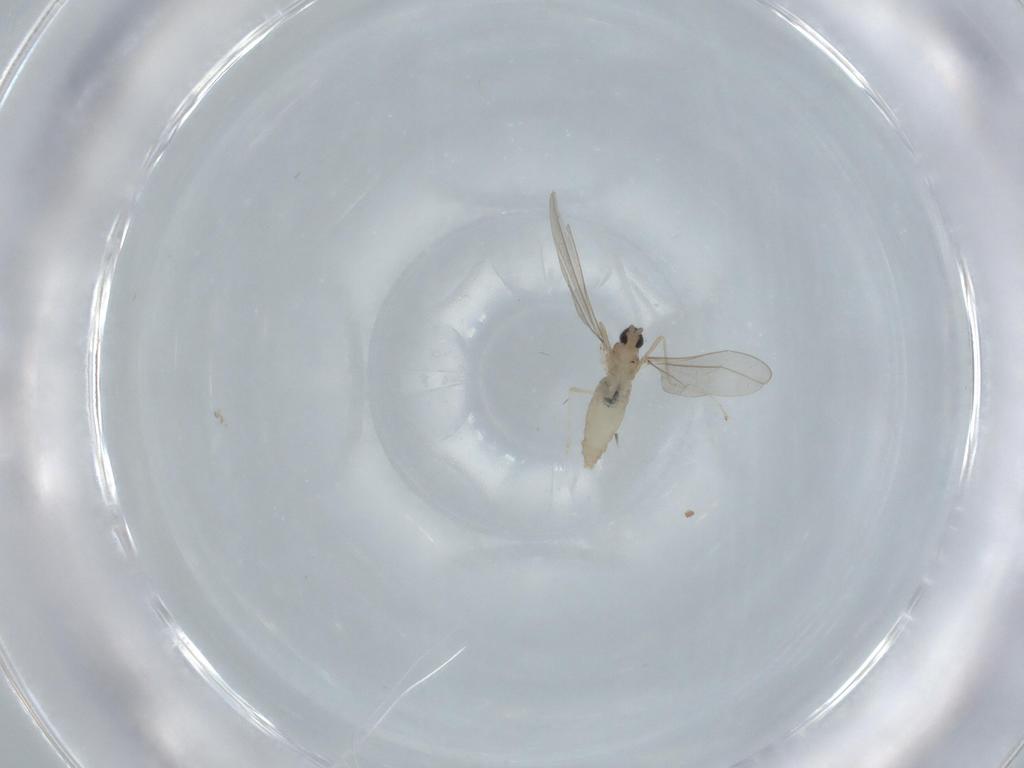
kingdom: Animalia
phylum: Arthropoda
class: Insecta
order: Diptera
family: Cecidomyiidae
